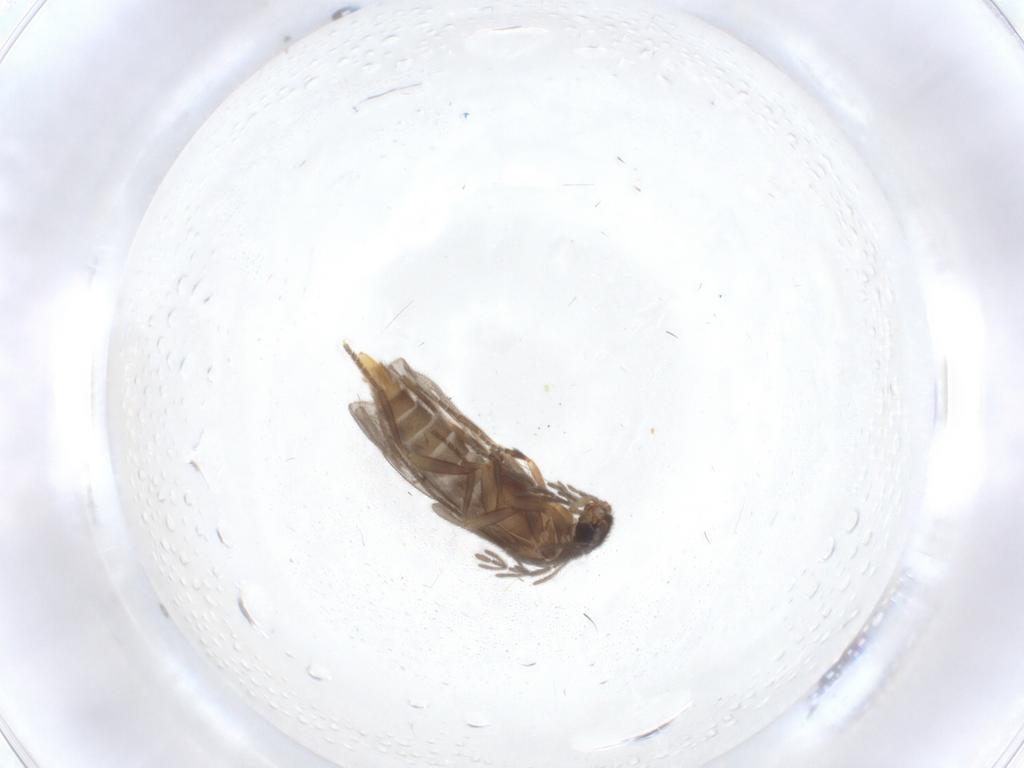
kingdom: Animalia
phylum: Arthropoda
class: Insecta
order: Coleoptera
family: Lycidae
